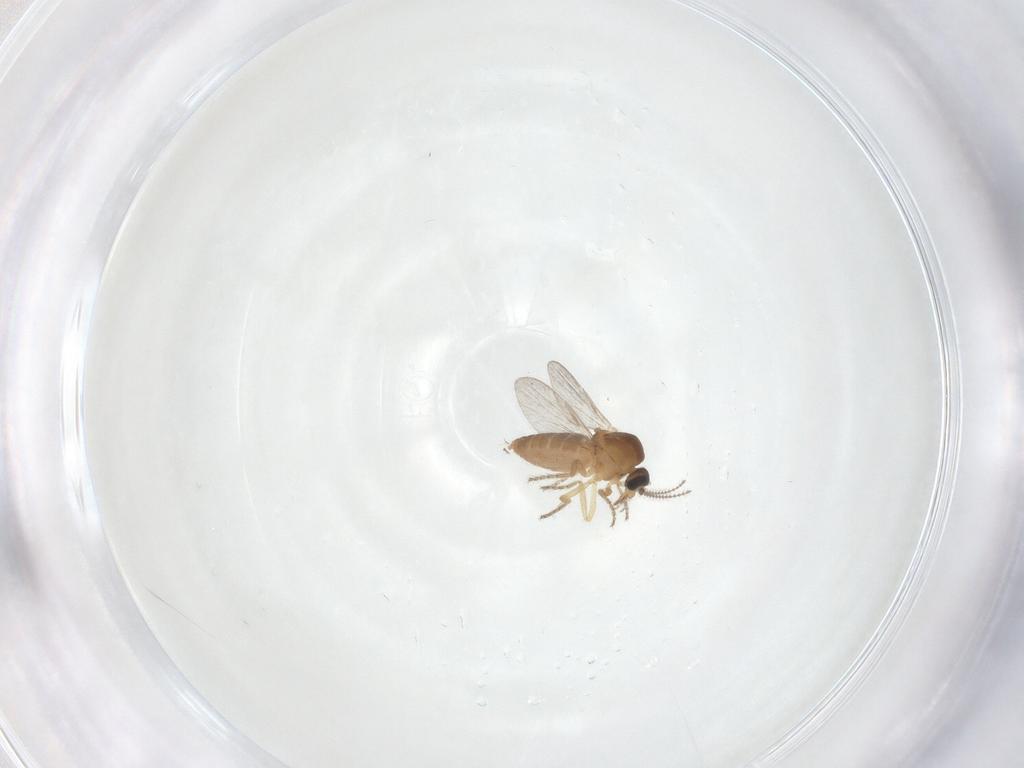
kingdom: Animalia
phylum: Arthropoda
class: Insecta
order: Diptera
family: Ceratopogonidae
